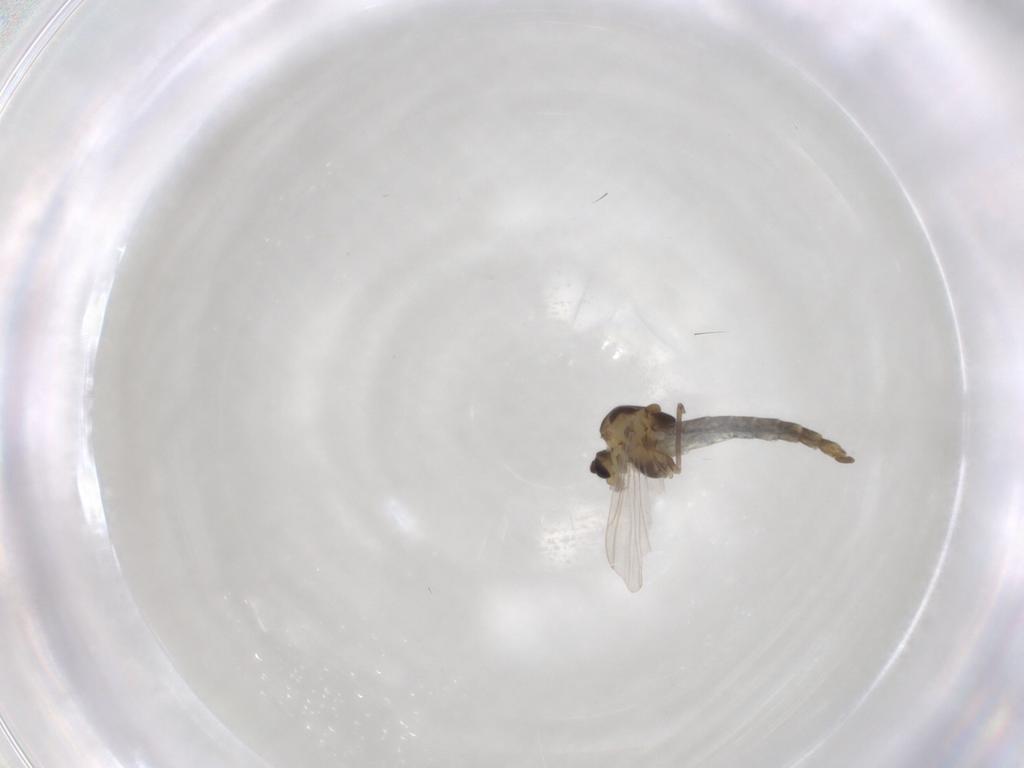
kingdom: Animalia
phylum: Arthropoda
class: Insecta
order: Diptera
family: Chironomidae
